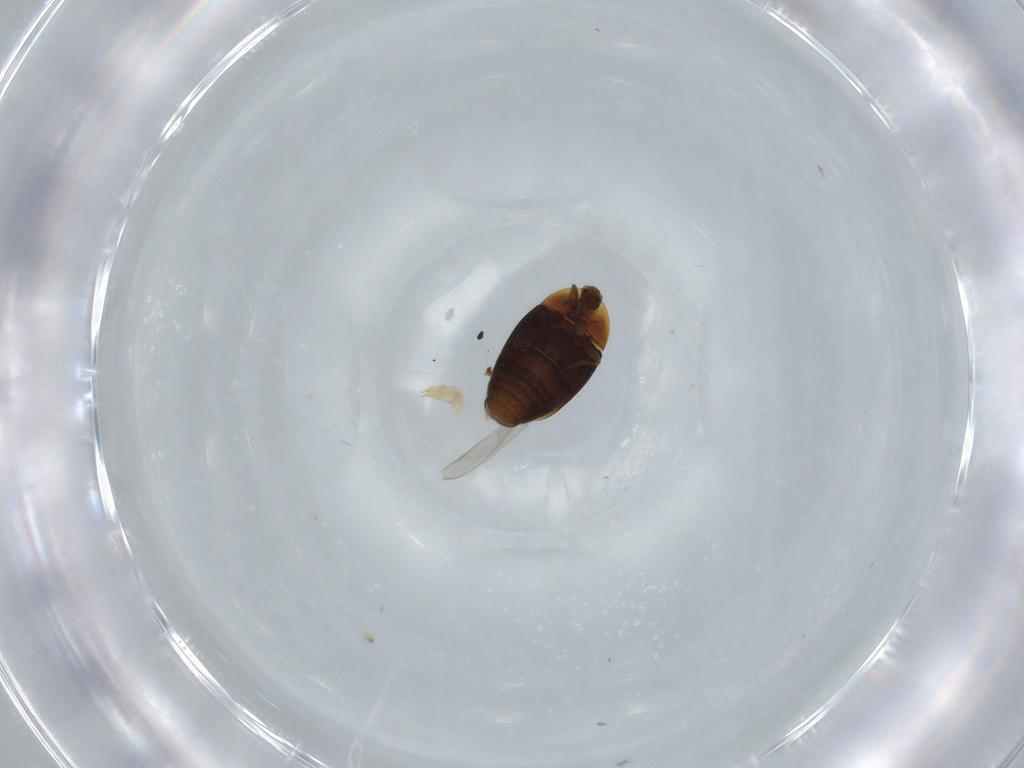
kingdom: Animalia
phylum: Arthropoda
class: Insecta
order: Coleoptera
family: Corylophidae
